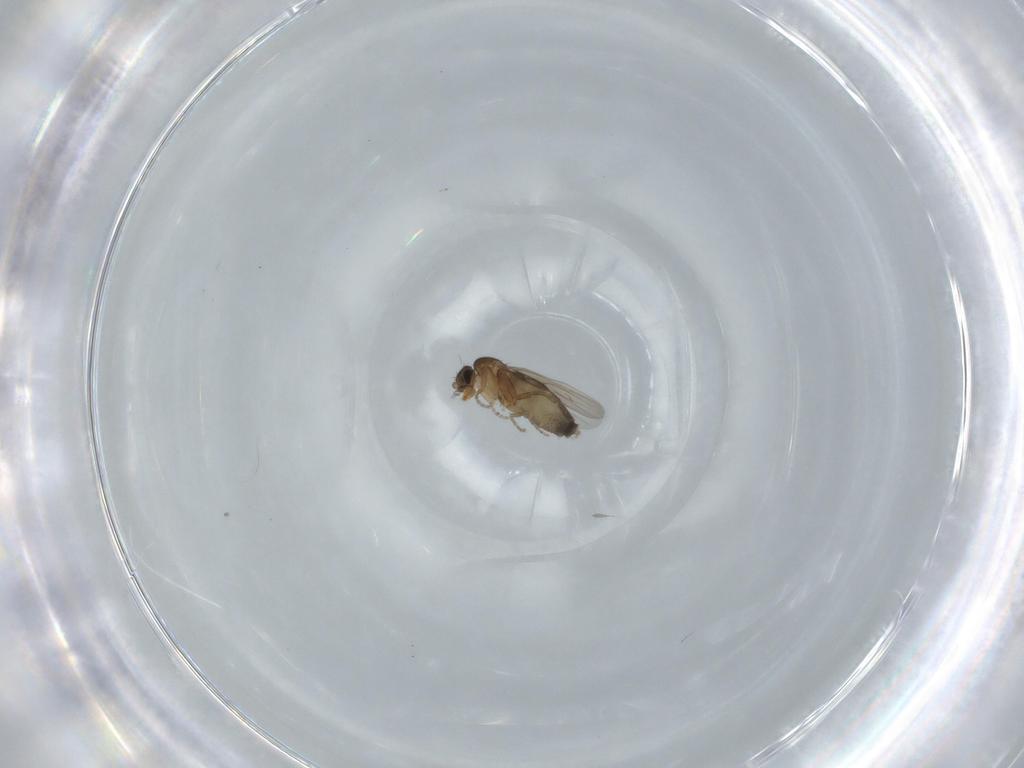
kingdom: Animalia
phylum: Arthropoda
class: Insecta
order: Diptera
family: Phoridae
